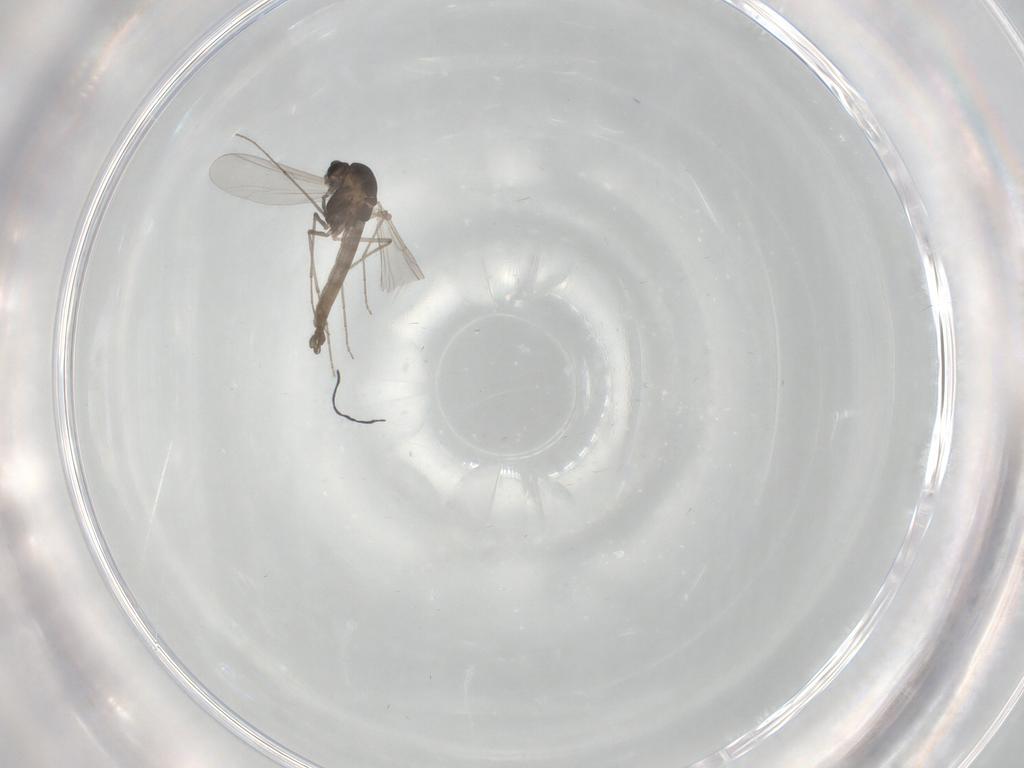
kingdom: Animalia
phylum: Arthropoda
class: Insecta
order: Diptera
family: Chironomidae
